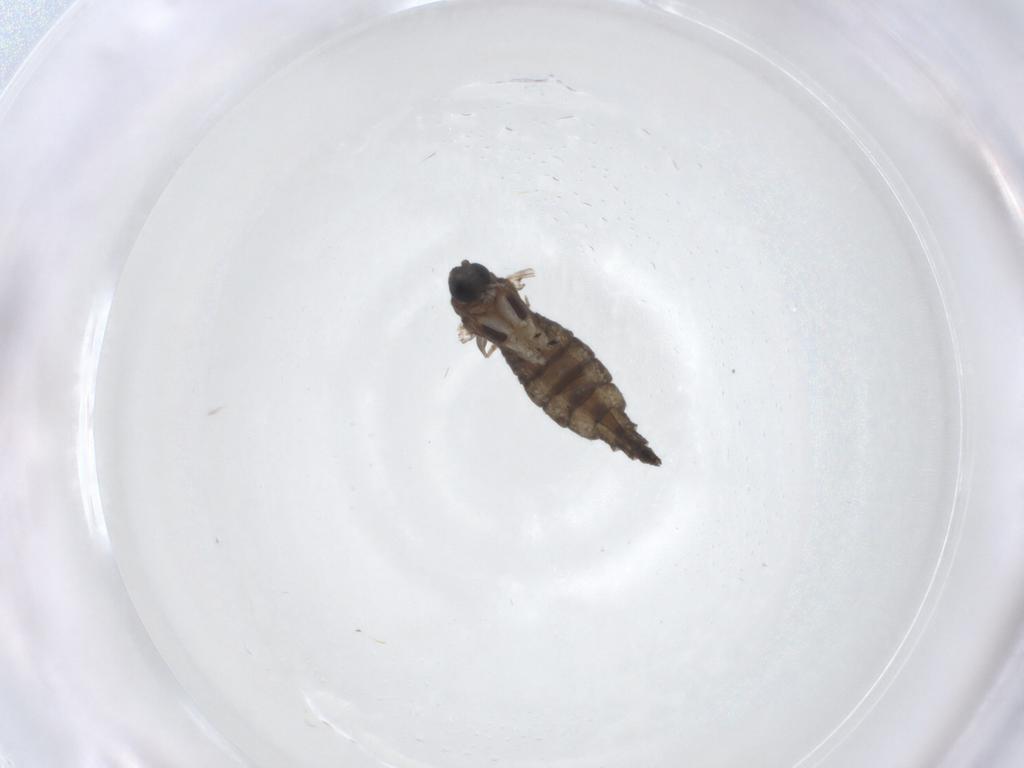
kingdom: Animalia
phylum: Arthropoda
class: Insecta
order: Diptera
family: Sciaridae
